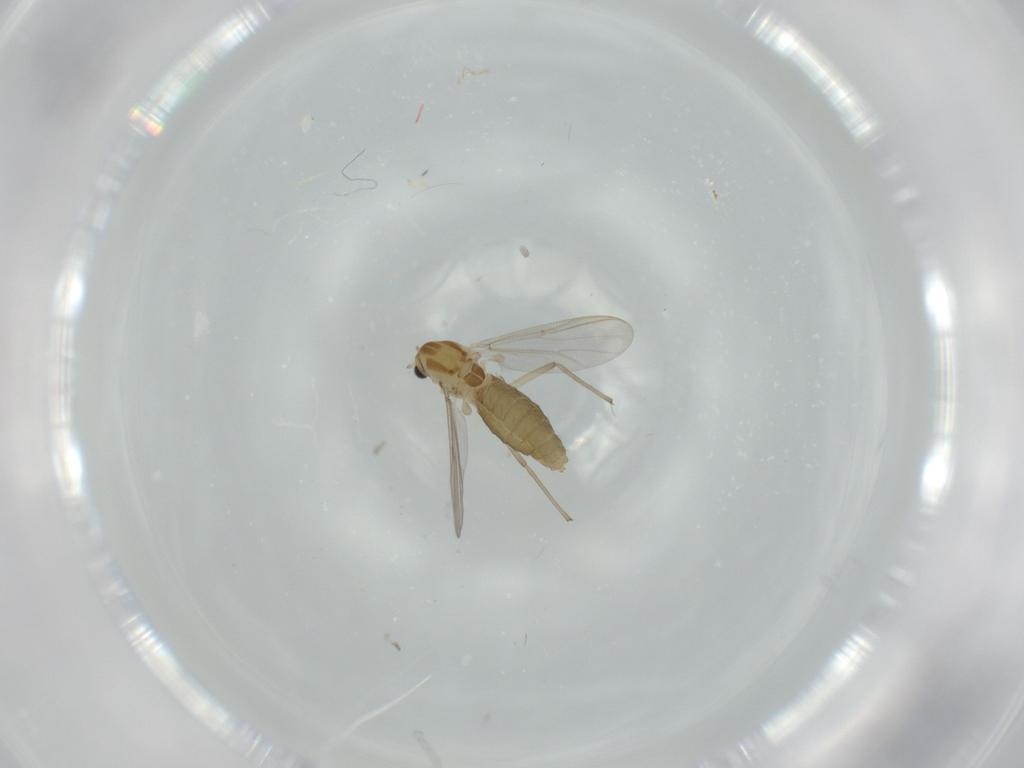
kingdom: Animalia
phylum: Arthropoda
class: Insecta
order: Diptera
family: Chironomidae
